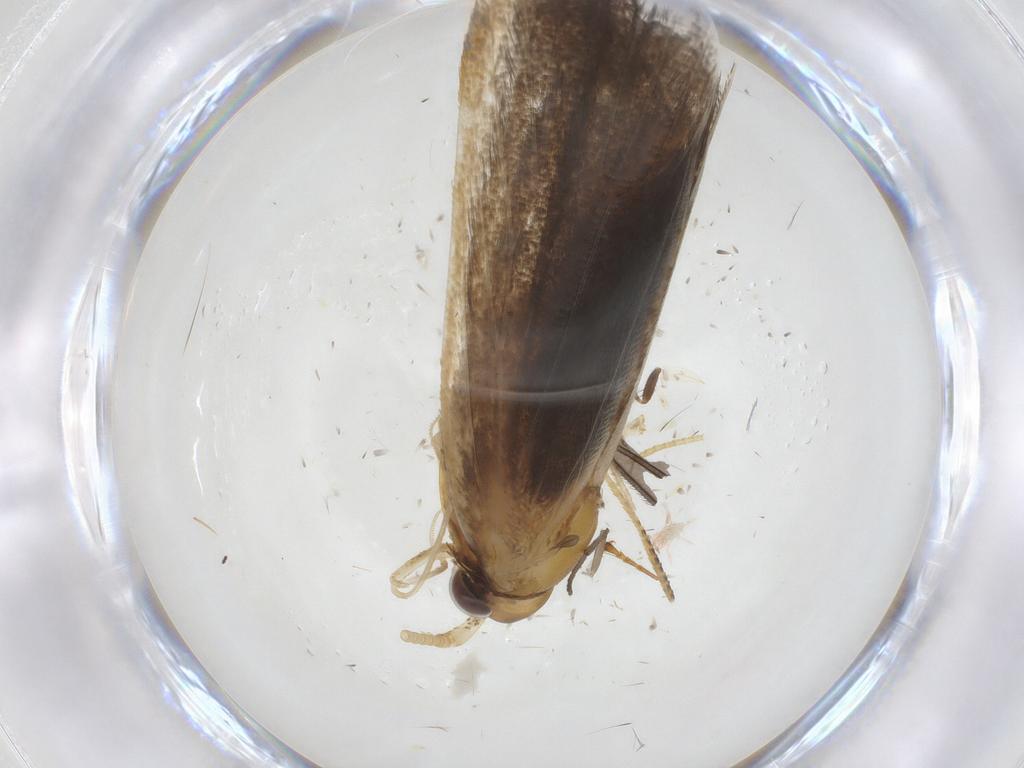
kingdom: Animalia
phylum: Arthropoda
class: Insecta
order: Lepidoptera
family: Lecithoceridae
